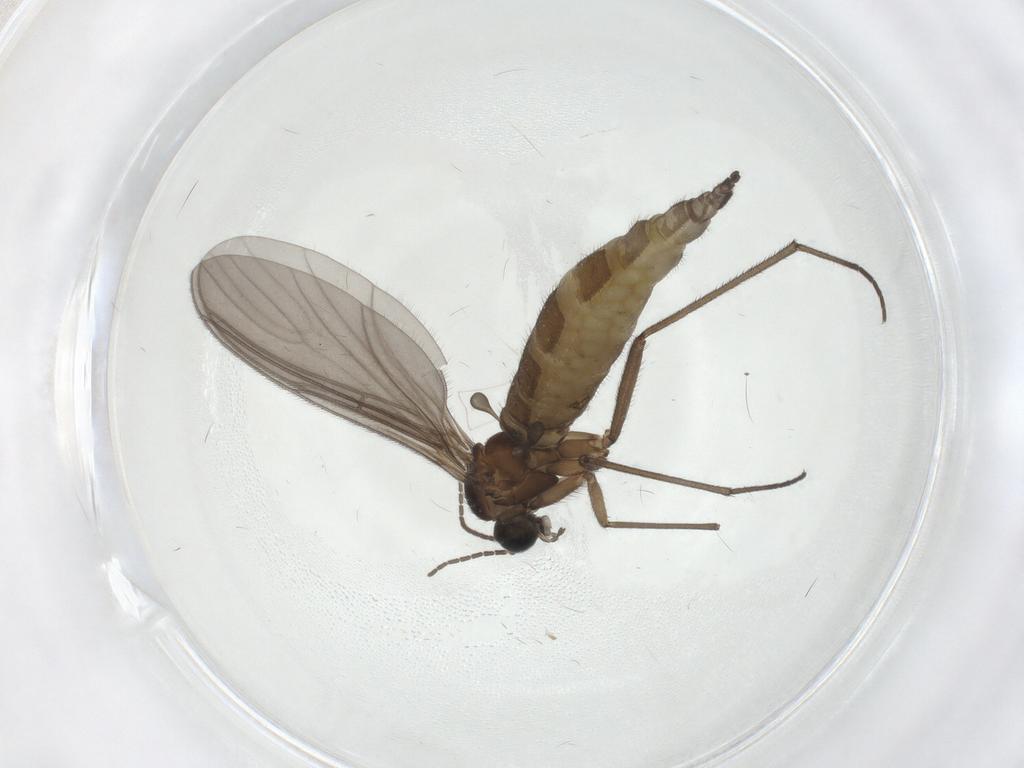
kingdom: Animalia
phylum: Arthropoda
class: Insecta
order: Diptera
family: Sciaridae
